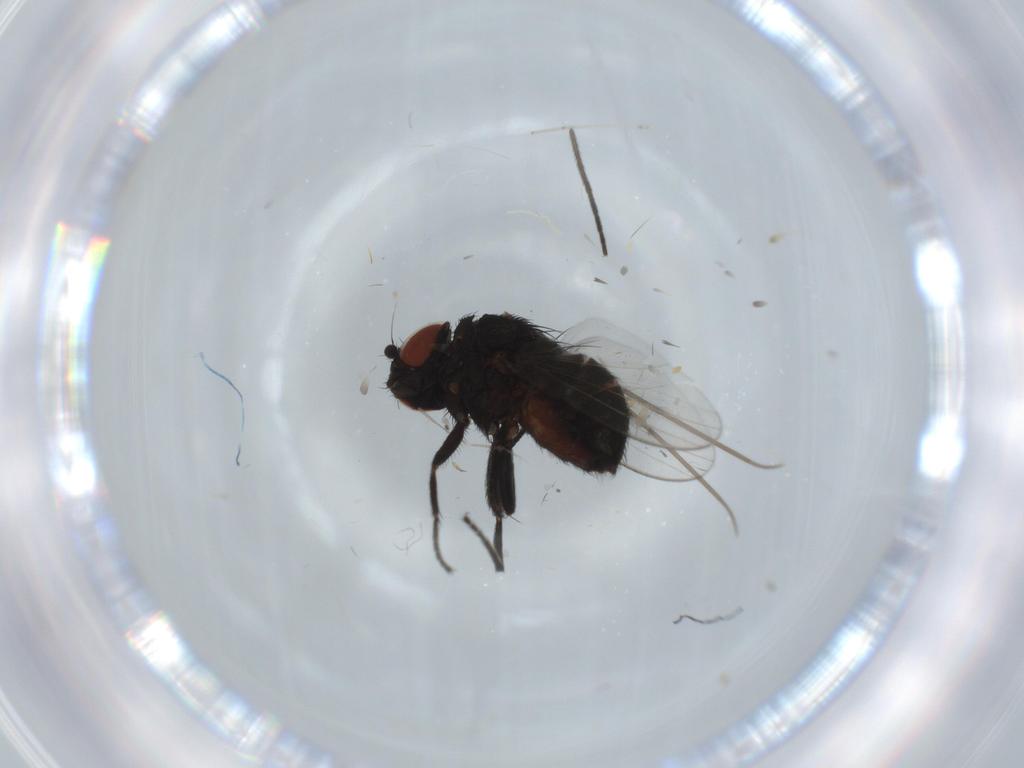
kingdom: Animalia
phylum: Arthropoda
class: Insecta
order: Diptera
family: Milichiidae
